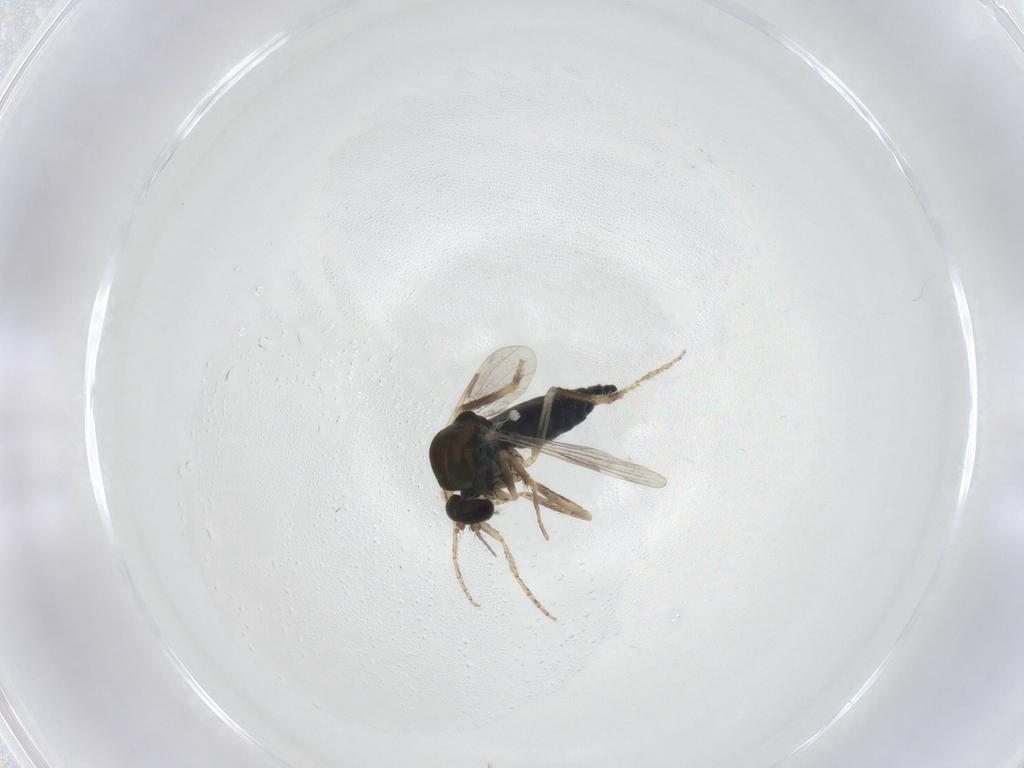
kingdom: Animalia
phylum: Arthropoda
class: Insecta
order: Diptera
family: Ceratopogonidae
